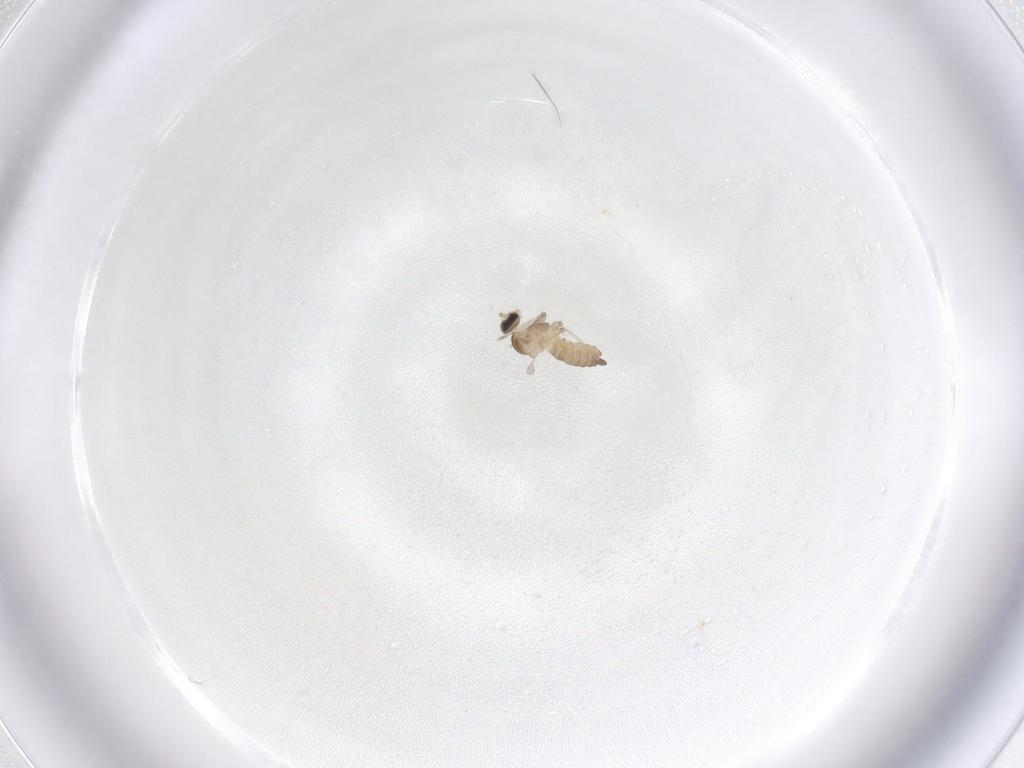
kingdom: Animalia
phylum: Arthropoda
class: Insecta
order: Diptera
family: Cecidomyiidae
